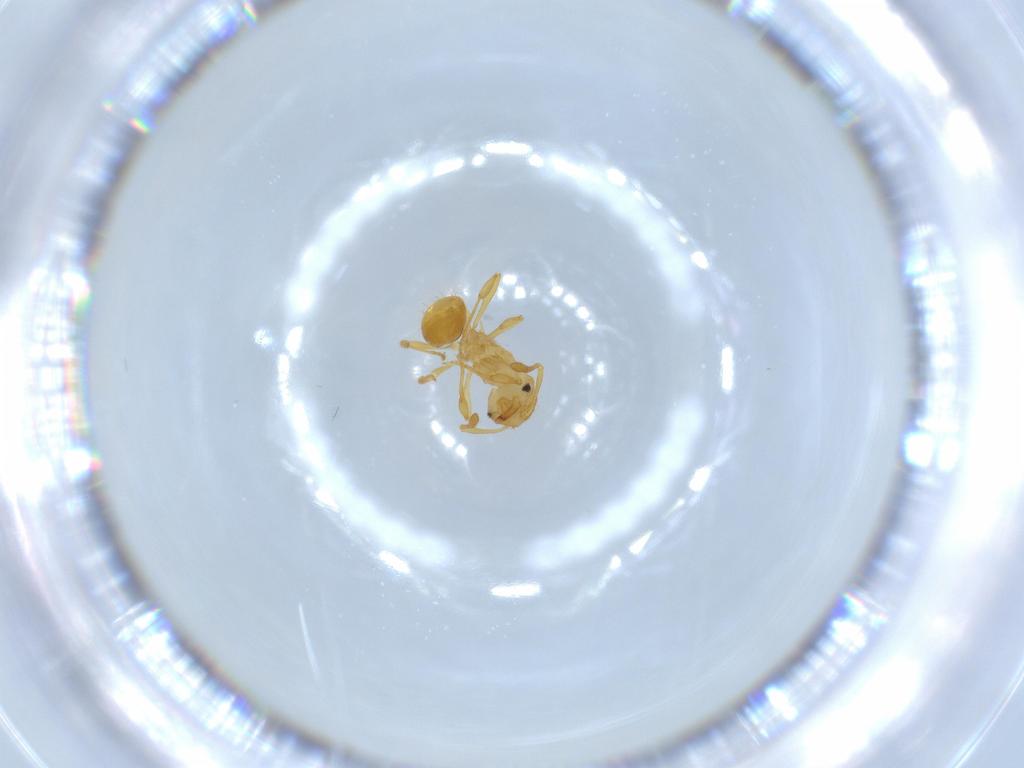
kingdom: Animalia
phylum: Arthropoda
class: Insecta
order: Hymenoptera
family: Formicidae
